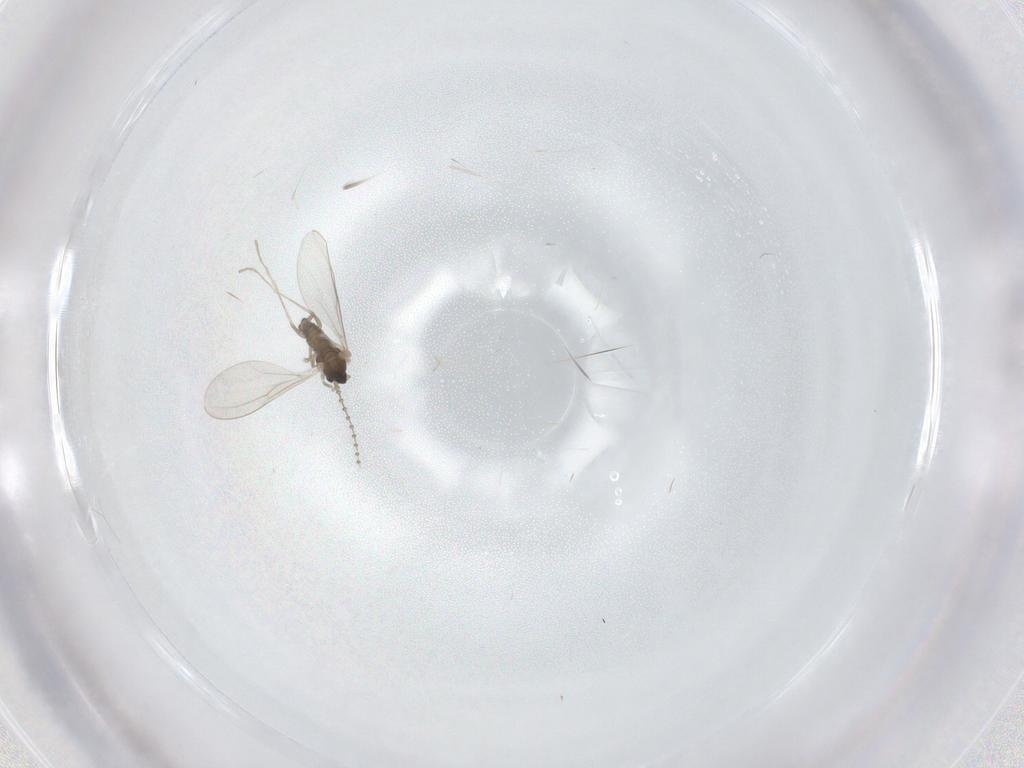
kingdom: Animalia
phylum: Arthropoda
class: Insecta
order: Diptera
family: Cecidomyiidae
